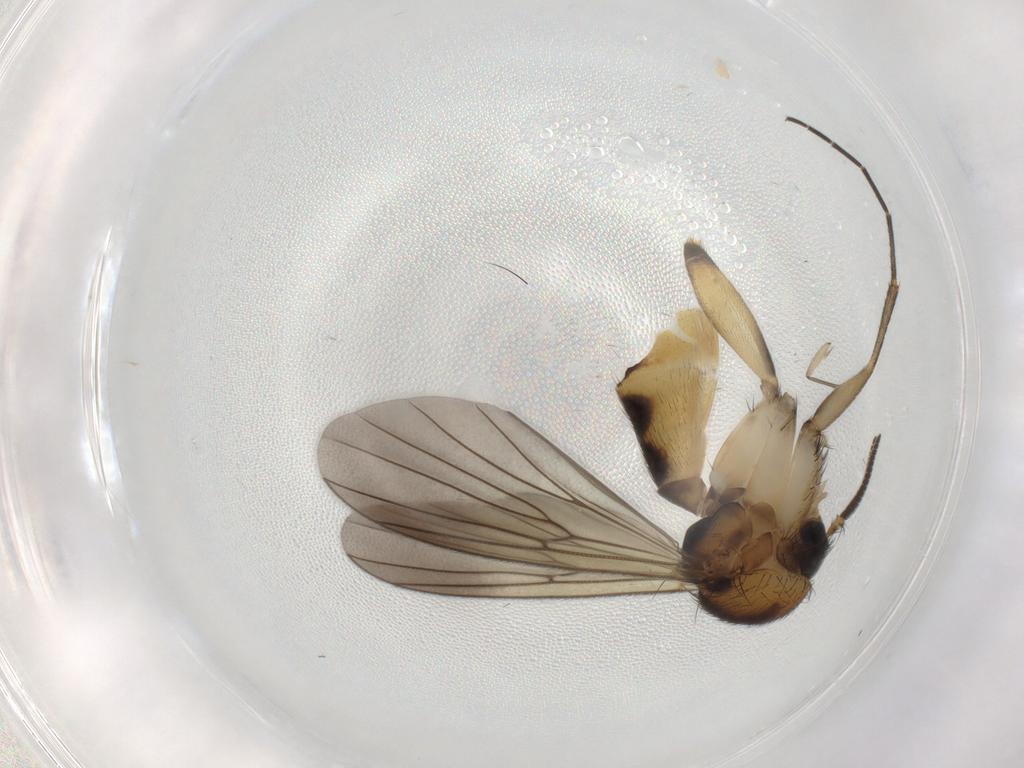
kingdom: Animalia
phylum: Arthropoda
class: Insecta
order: Diptera
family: Mycetophilidae
